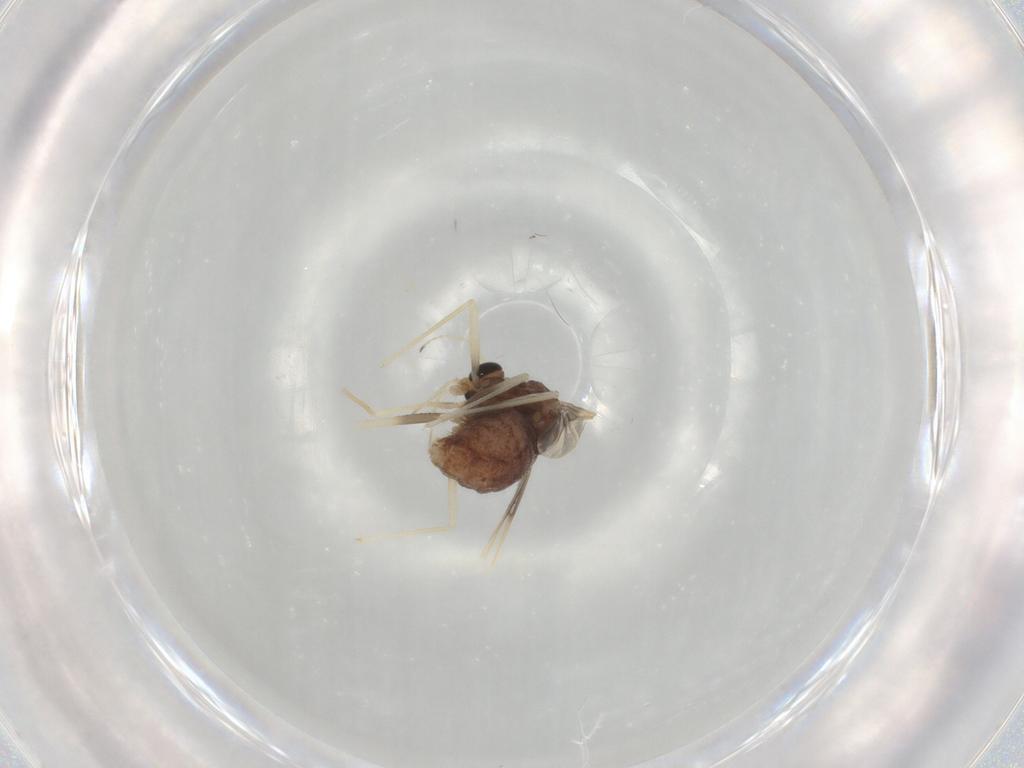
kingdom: Animalia
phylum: Arthropoda
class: Insecta
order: Diptera
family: Chironomidae
